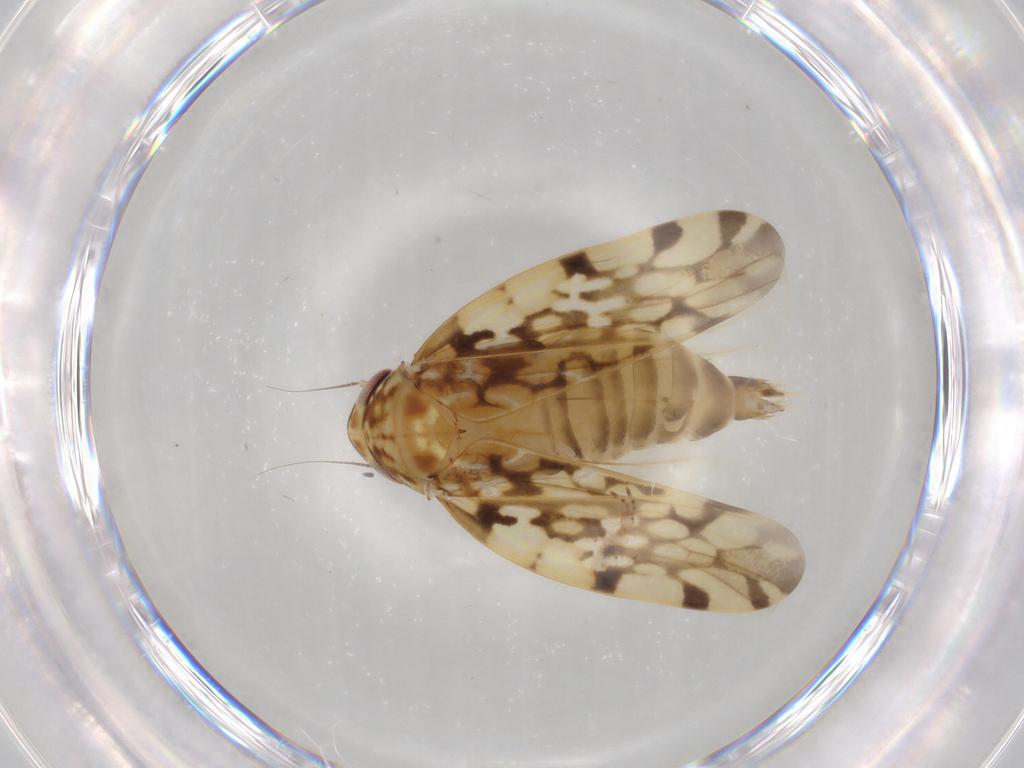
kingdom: Animalia
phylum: Arthropoda
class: Insecta
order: Hemiptera
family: Cicadellidae
